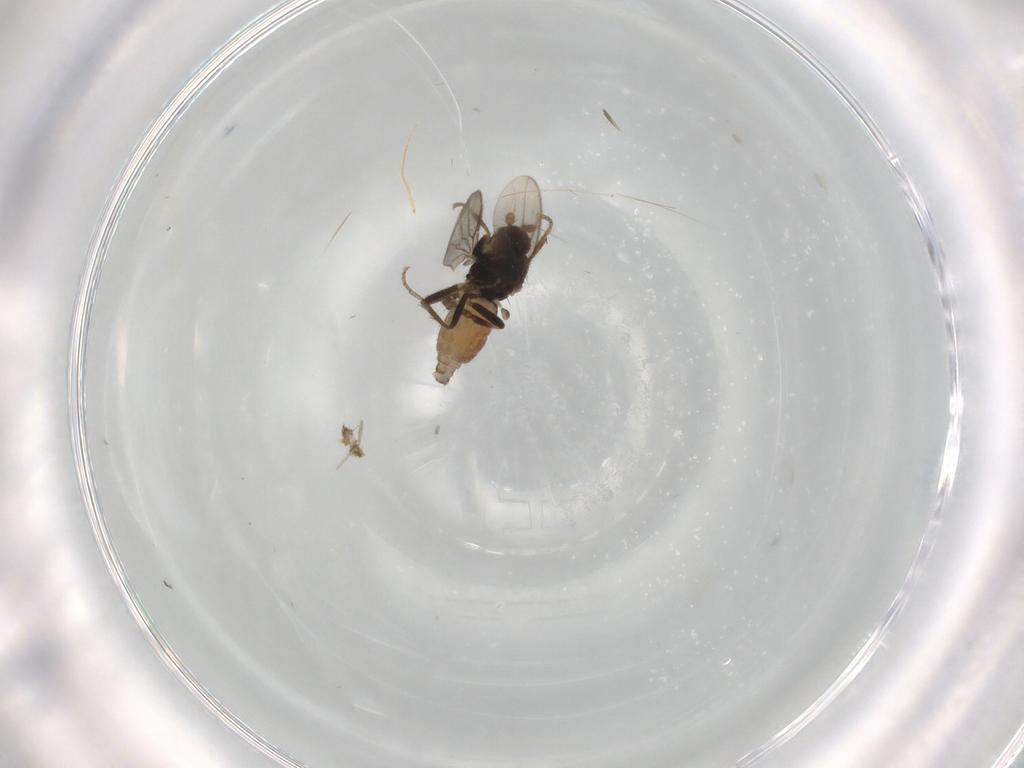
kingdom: Animalia
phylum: Arthropoda
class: Insecta
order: Diptera
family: Sphaeroceridae
